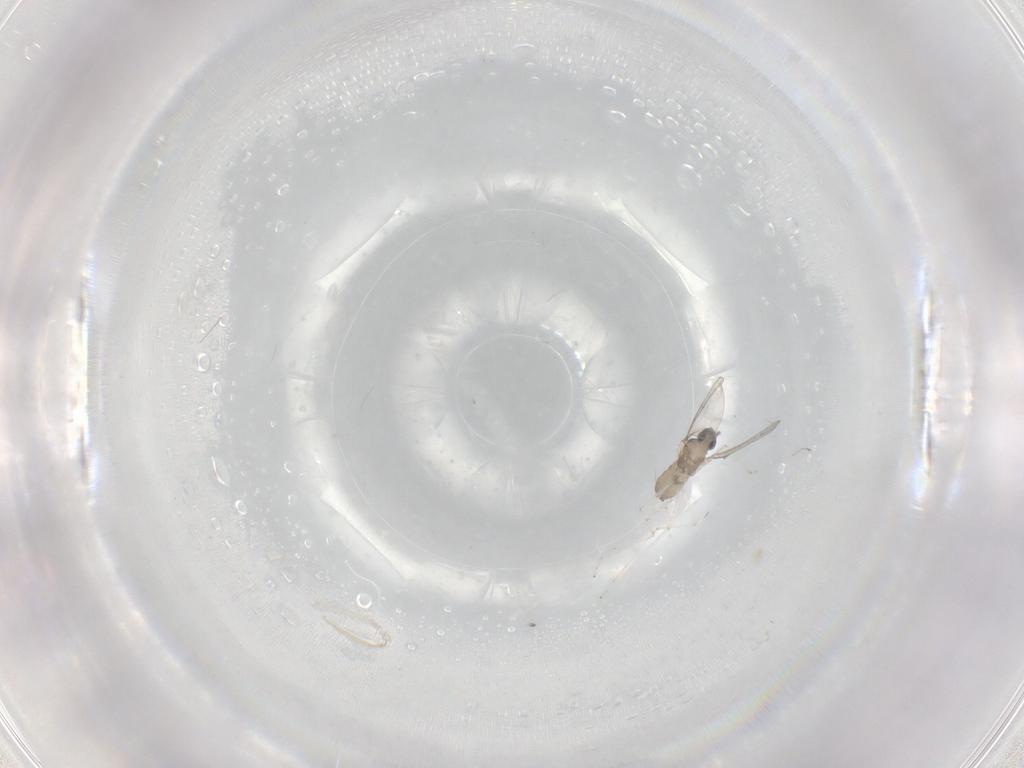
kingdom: Animalia
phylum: Arthropoda
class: Insecta
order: Diptera
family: Cecidomyiidae
